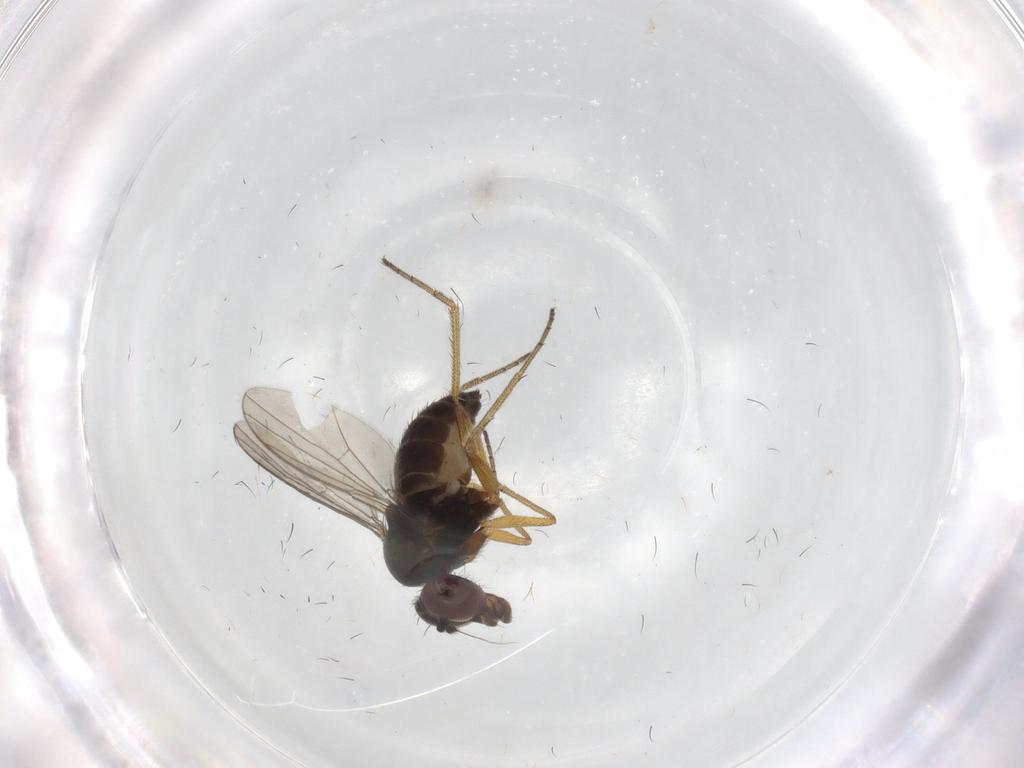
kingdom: Animalia
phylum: Arthropoda
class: Insecta
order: Diptera
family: Dolichopodidae
